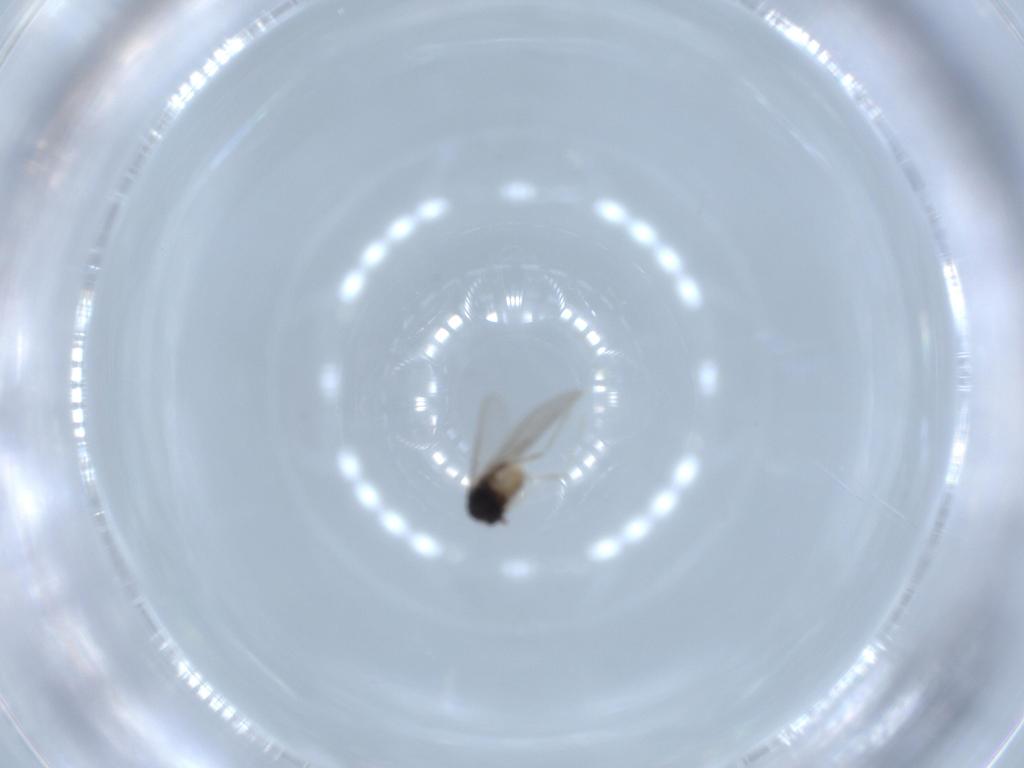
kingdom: Animalia
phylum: Arthropoda
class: Insecta
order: Diptera
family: Cecidomyiidae
